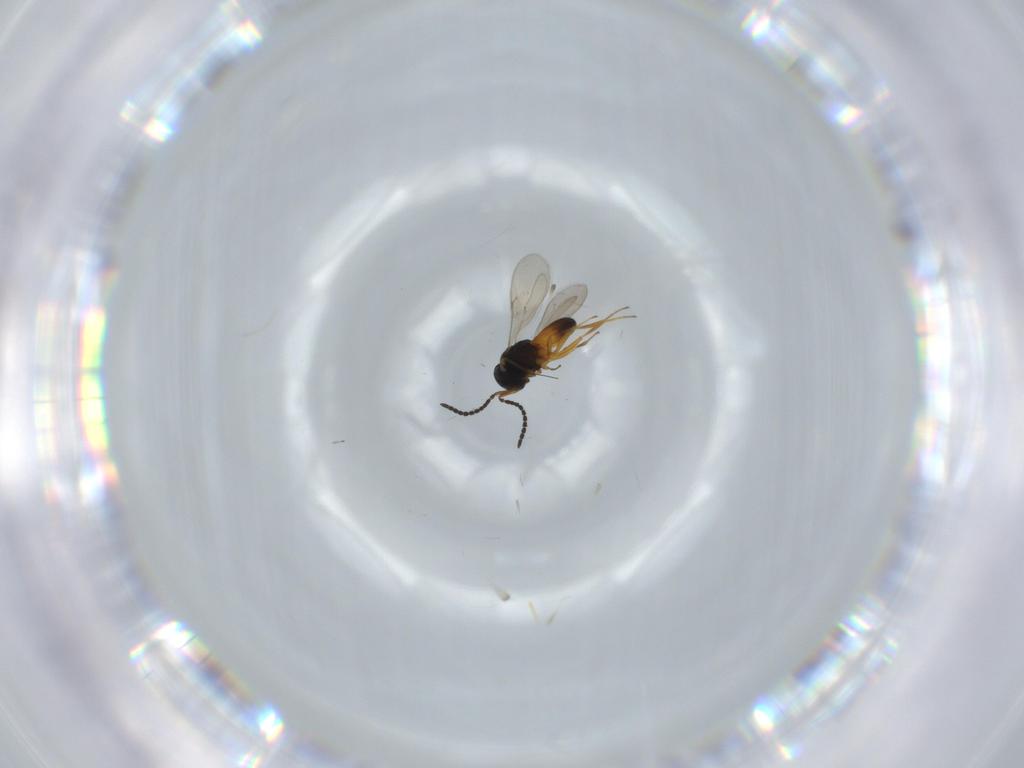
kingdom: Animalia
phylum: Arthropoda
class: Insecta
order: Hymenoptera
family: Scelionidae
